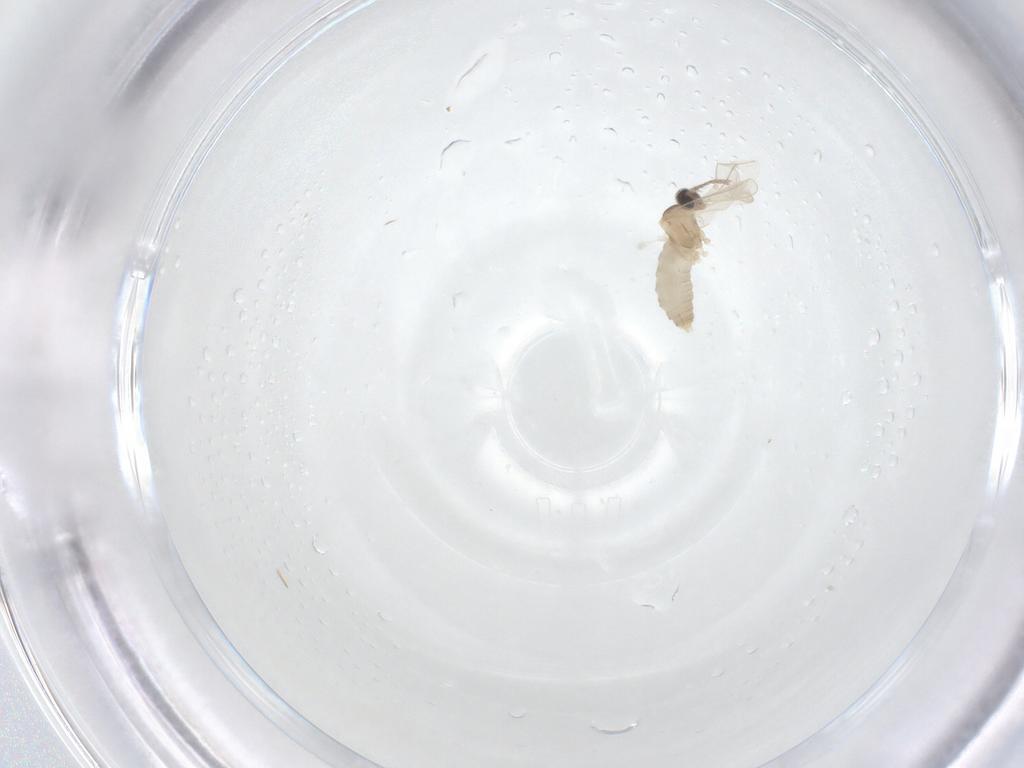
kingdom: Animalia
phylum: Arthropoda
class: Insecta
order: Diptera
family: Cecidomyiidae
